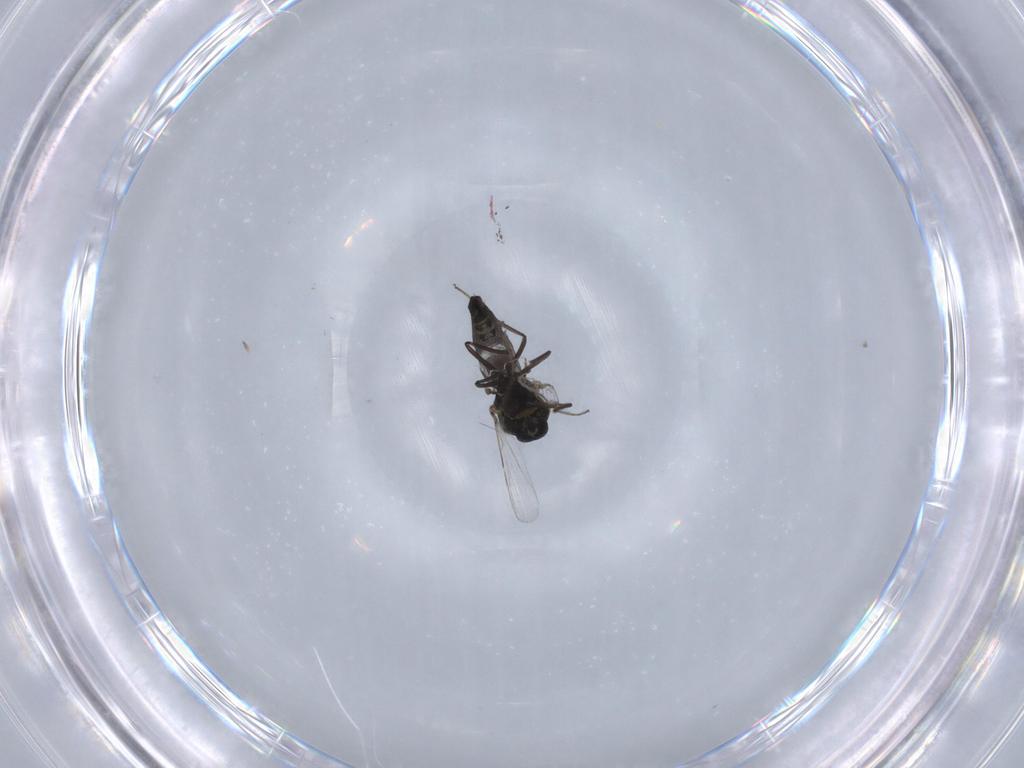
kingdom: Animalia
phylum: Arthropoda
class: Insecta
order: Diptera
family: Ceratopogonidae
